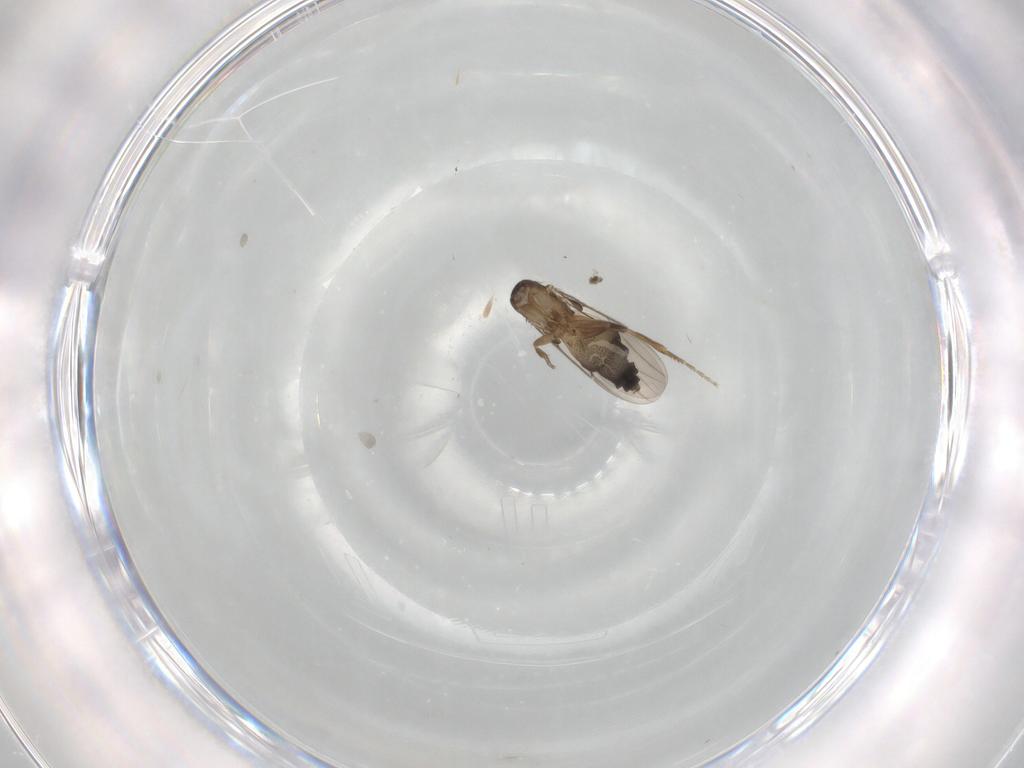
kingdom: Animalia
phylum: Arthropoda
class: Insecta
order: Diptera
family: Phoridae
